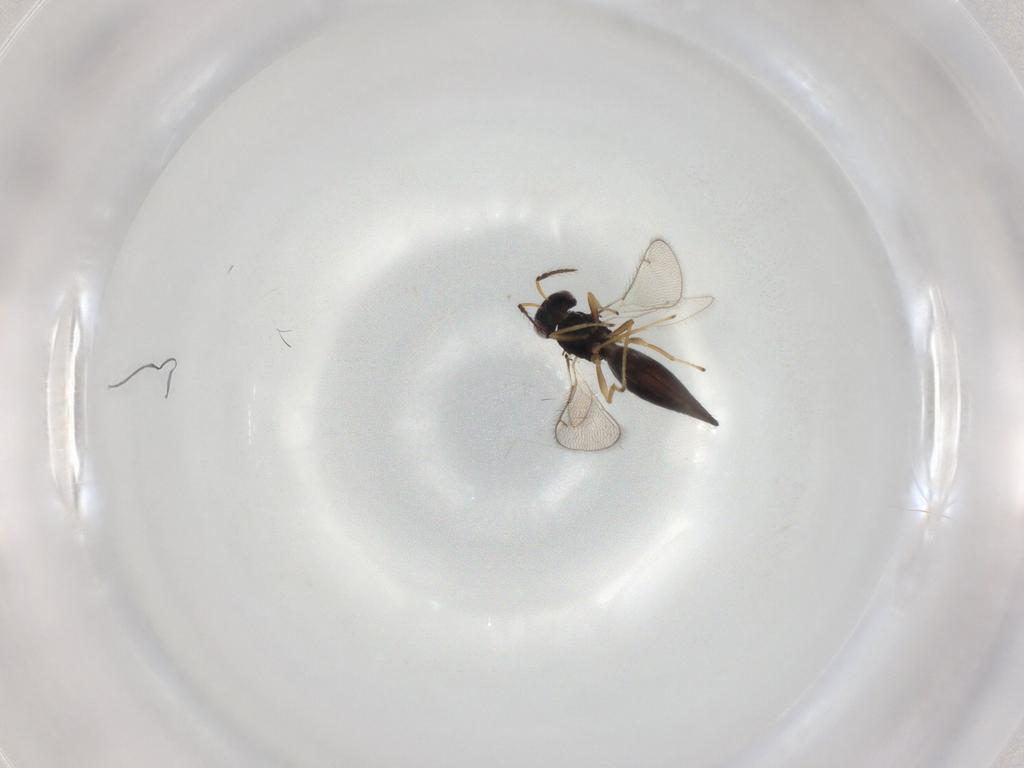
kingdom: Animalia
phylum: Arthropoda
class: Insecta
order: Hymenoptera
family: Eulophidae
